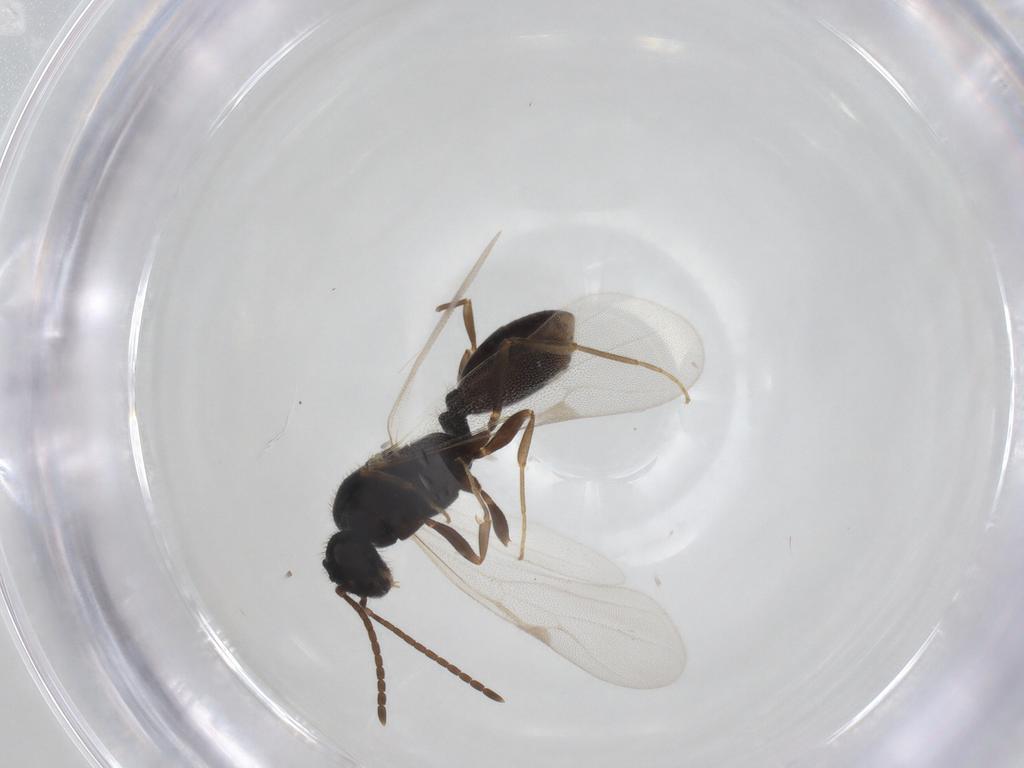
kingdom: Animalia
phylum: Arthropoda
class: Insecta
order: Hymenoptera
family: Formicidae
